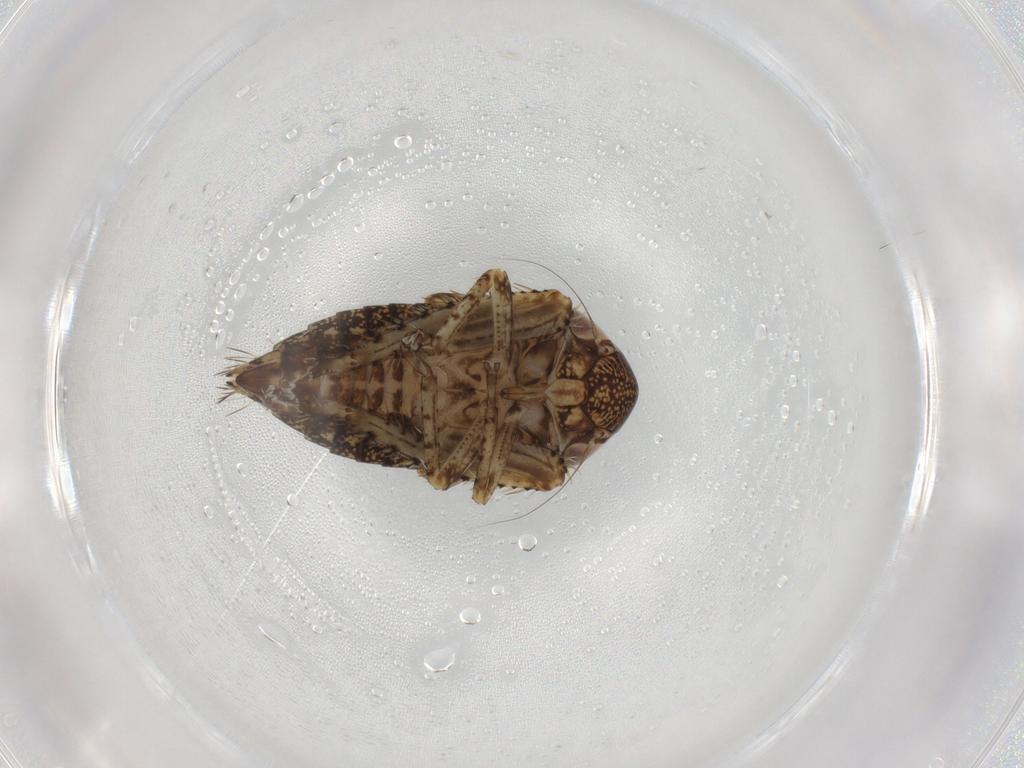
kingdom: Animalia
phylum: Arthropoda
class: Insecta
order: Hemiptera
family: Cicadellidae
